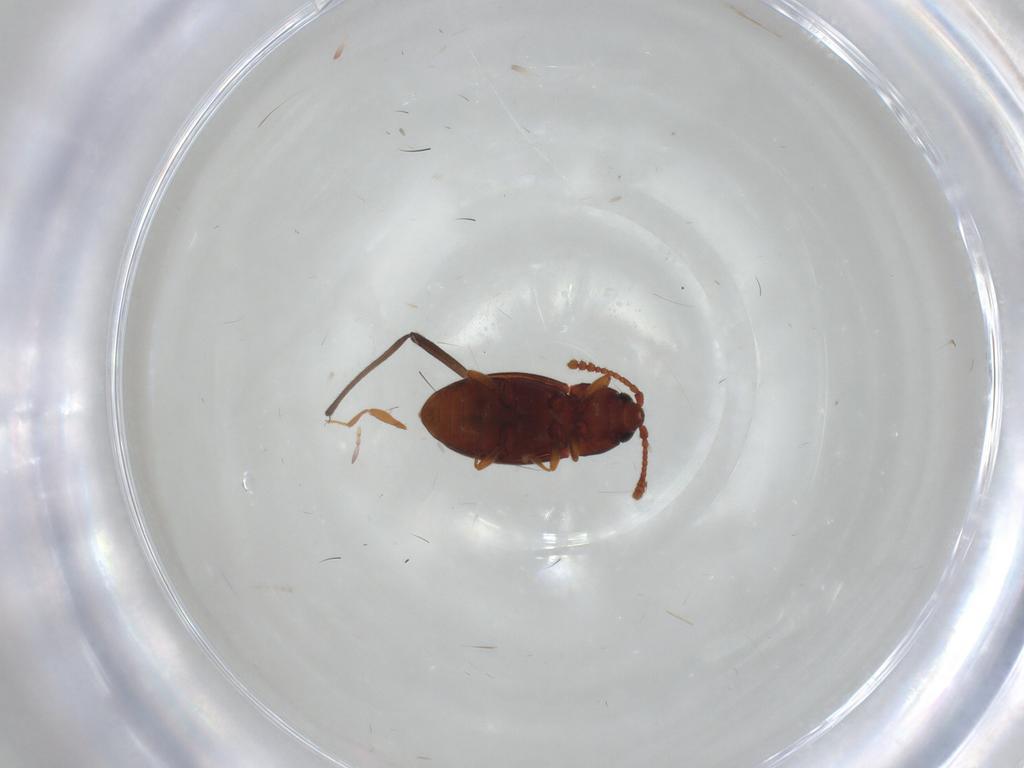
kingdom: Animalia
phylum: Arthropoda
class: Insecta
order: Coleoptera
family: Cryptophagidae
